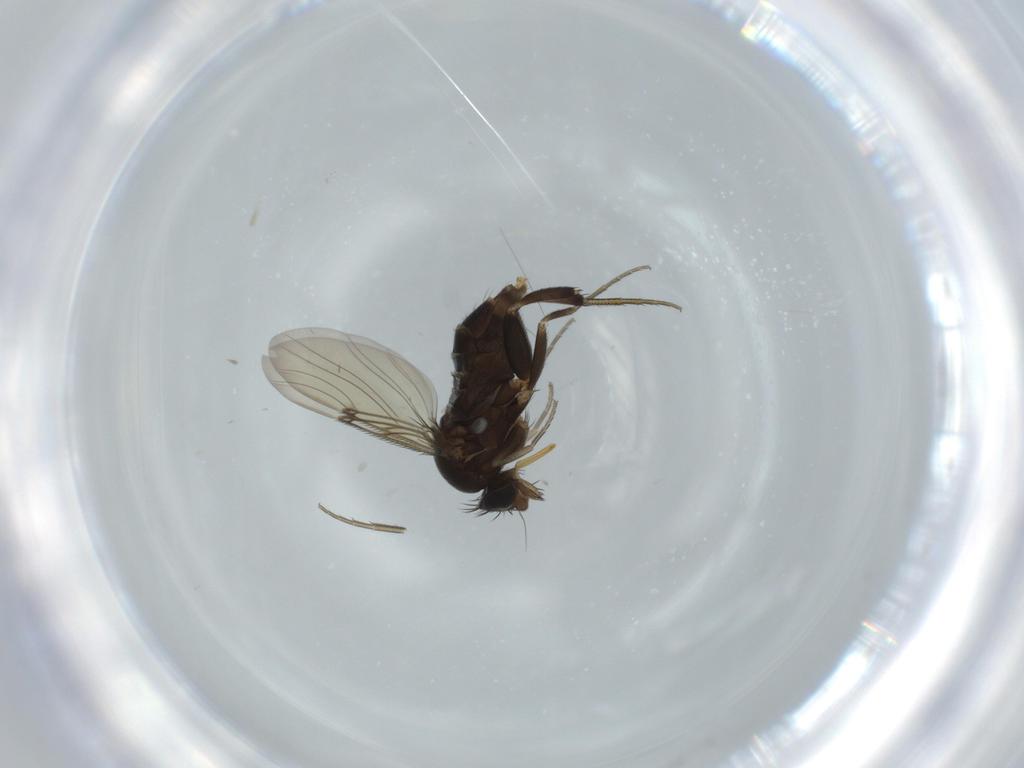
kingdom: Animalia
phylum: Arthropoda
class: Insecta
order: Diptera
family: Phoridae
